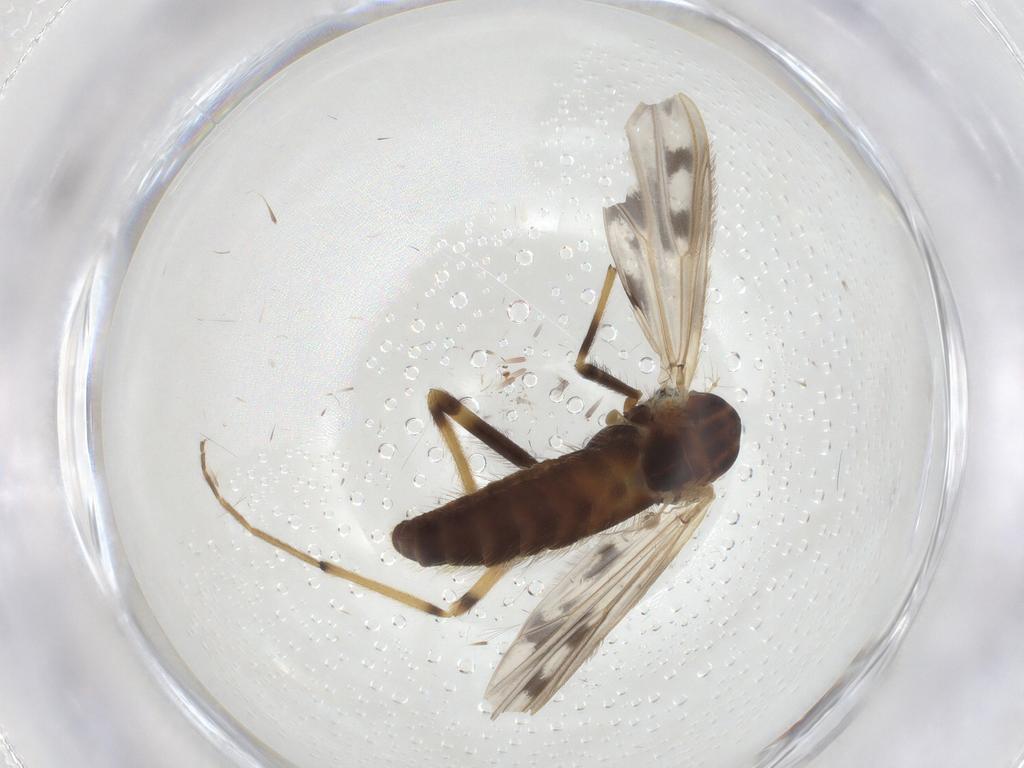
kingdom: Animalia
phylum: Arthropoda
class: Insecta
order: Diptera
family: Chironomidae
